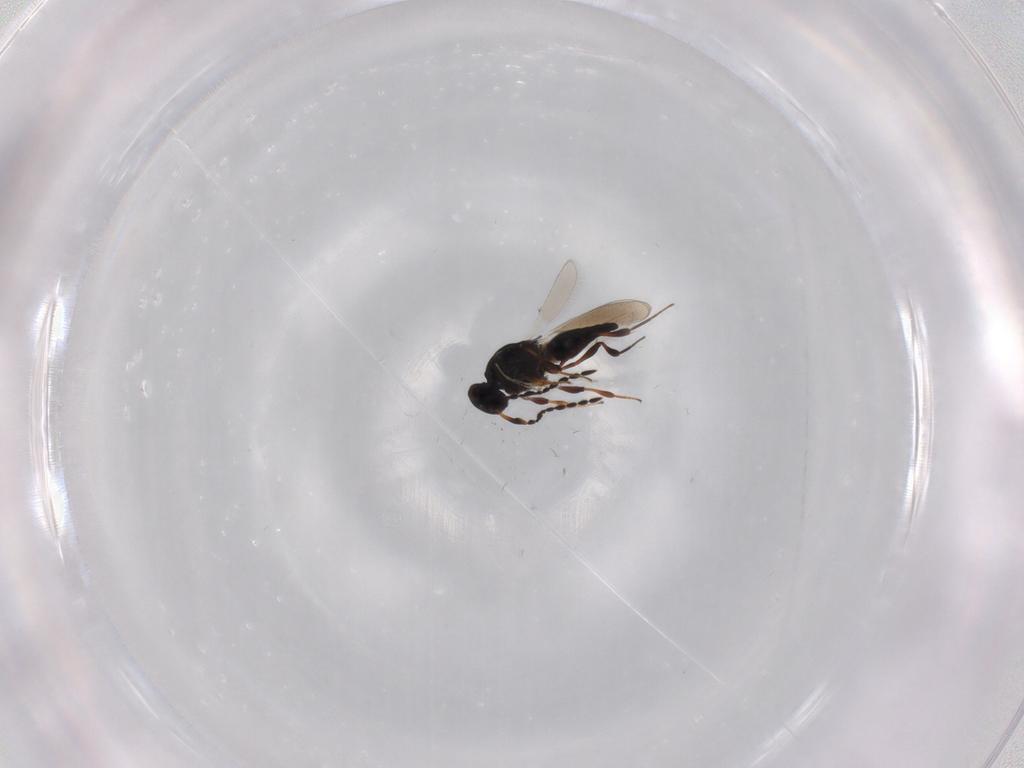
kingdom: Animalia
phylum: Arthropoda
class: Insecta
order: Hymenoptera
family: Platygastridae
